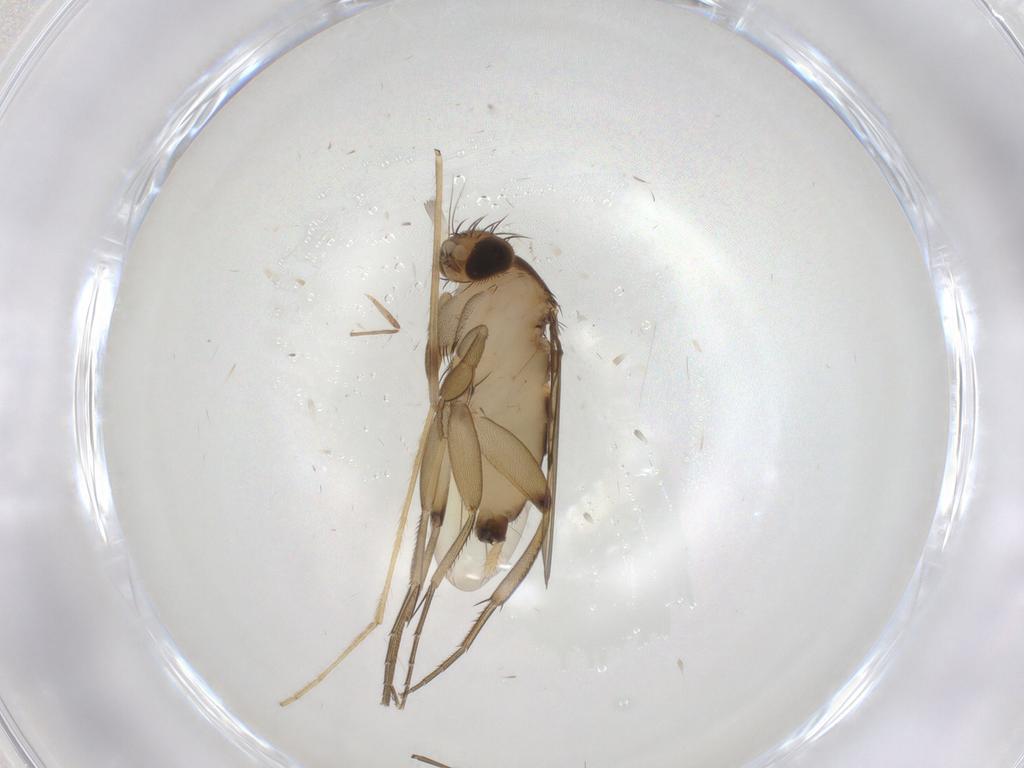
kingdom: Animalia
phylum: Arthropoda
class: Insecta
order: Diptera
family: Phoridae
